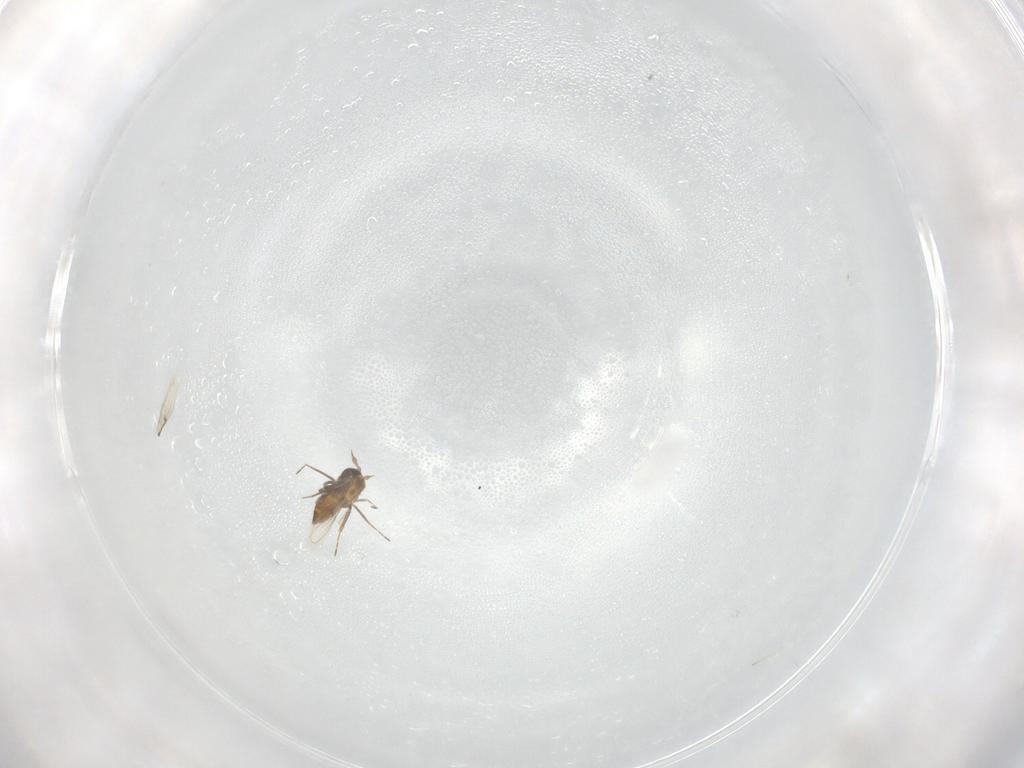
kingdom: Animalia
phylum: Arthropoda
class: Insecta
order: Hymenoptera
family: Trichogrammatidae
